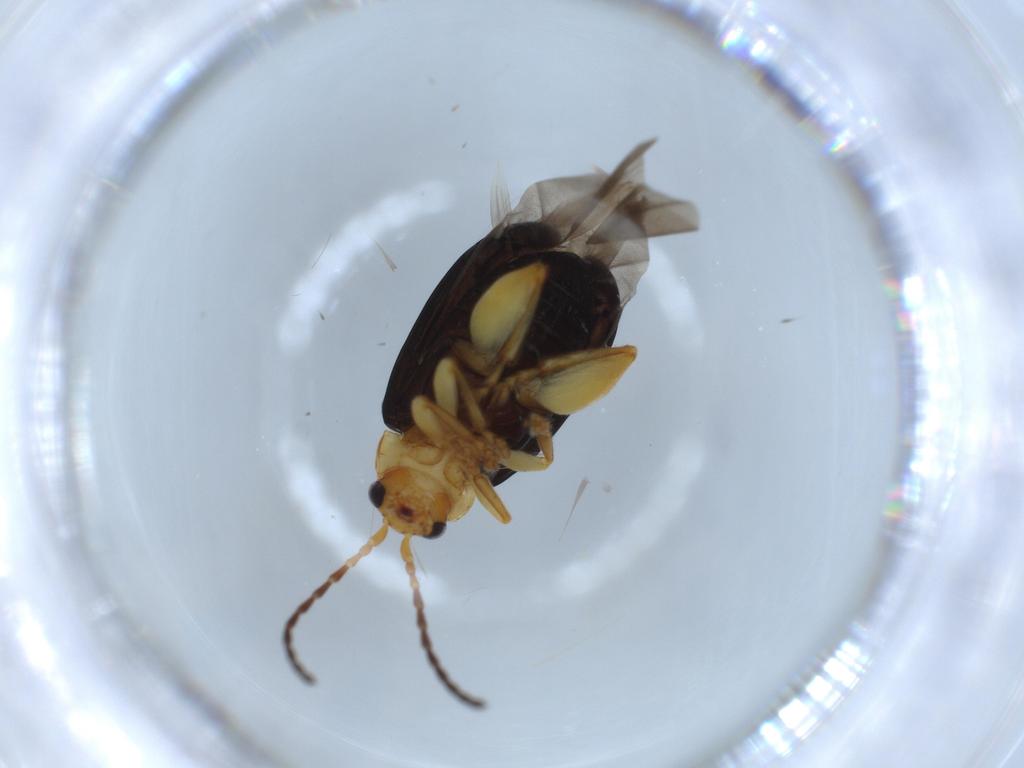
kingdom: Animalia
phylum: Arthropoda
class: Insecta
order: Coleoptera
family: Chrysomelidae
